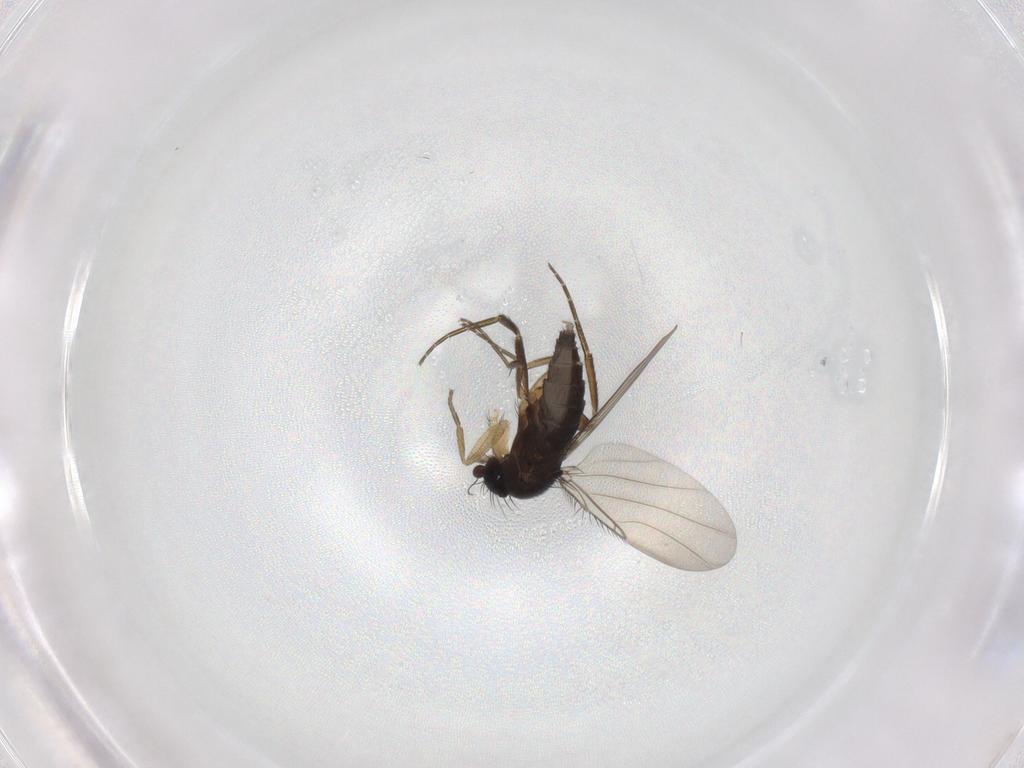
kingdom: Animalia
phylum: Arthropoda
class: Insecta
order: Diptera
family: Phoridae
